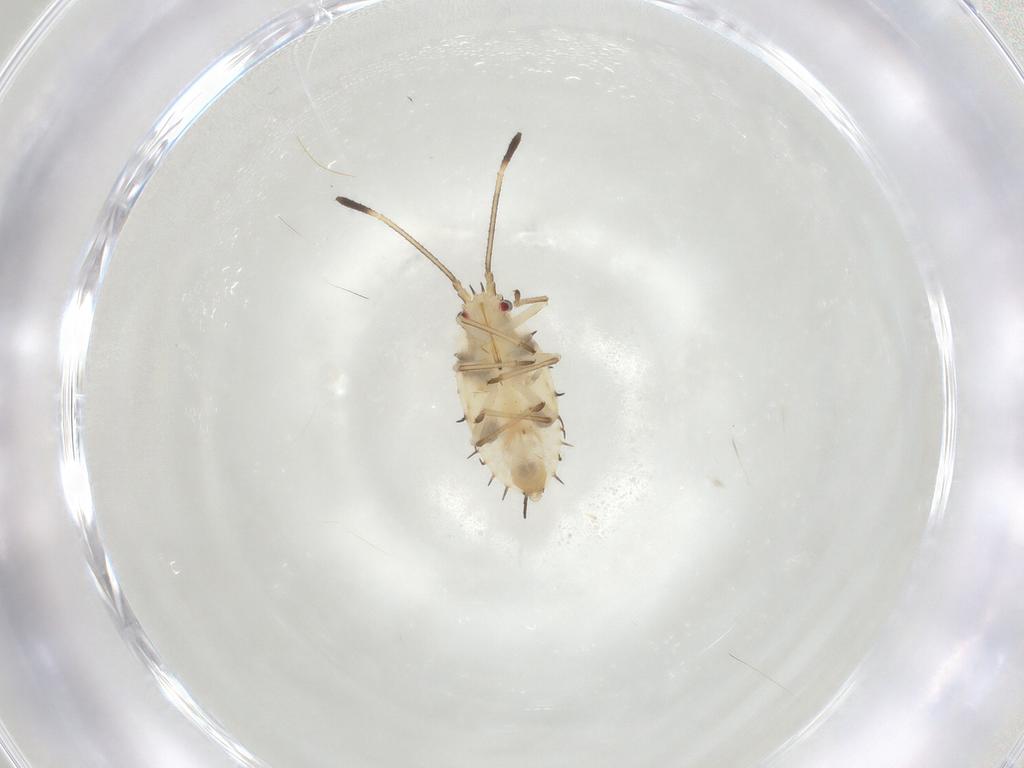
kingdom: Animalia
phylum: Arthropoda
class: Insecta
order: Hemiptera
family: Tingidae
